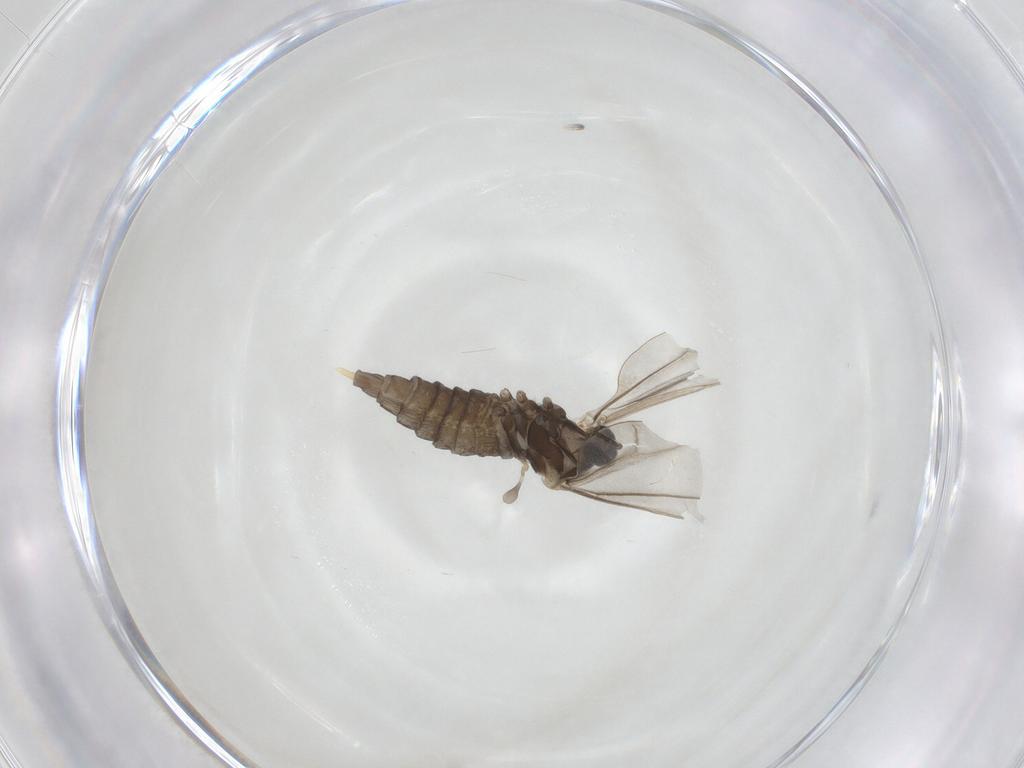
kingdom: Animalia
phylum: Arthropoda
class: Insecta
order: Diptera
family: Cecidomyiidae
